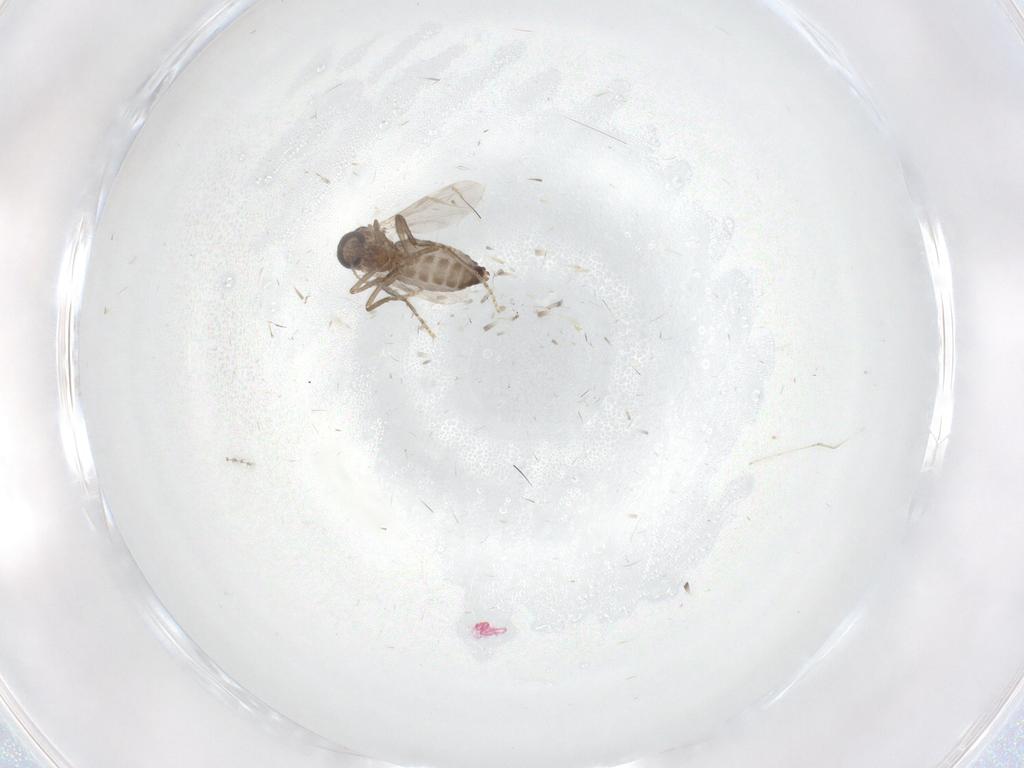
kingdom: Animalia
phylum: Arthropoda
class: Insecta
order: Diptera
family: Ceratopogonidae
